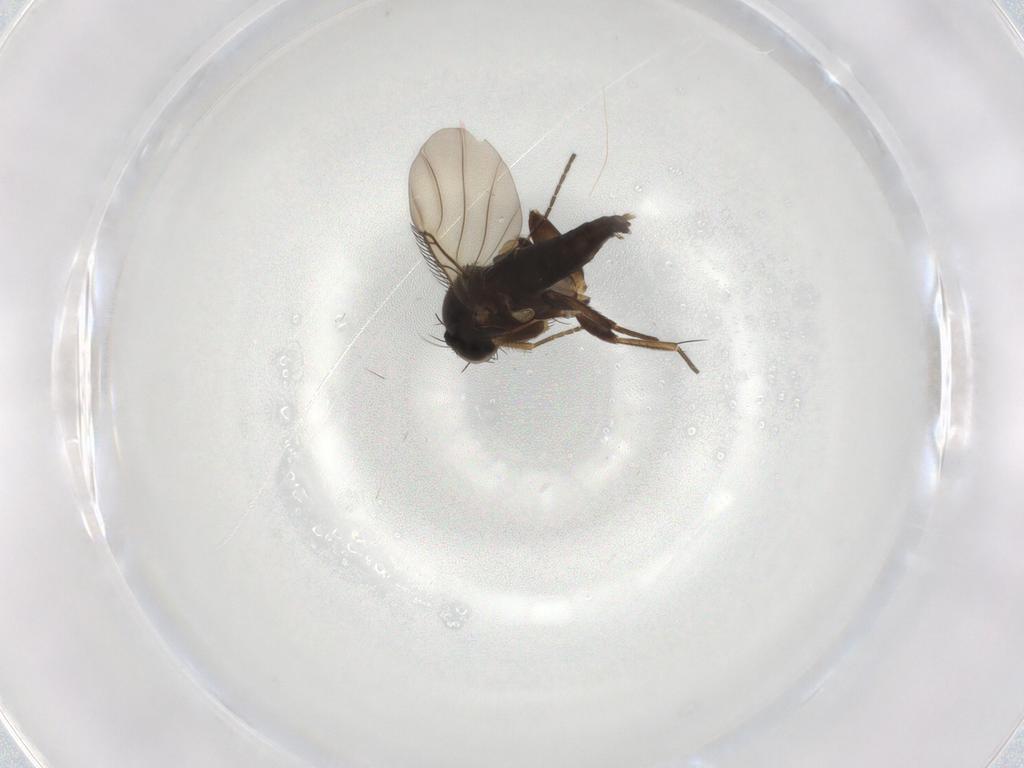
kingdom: Animalia
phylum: Arthropoda
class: Insecta
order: Diptera
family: Phoridae
